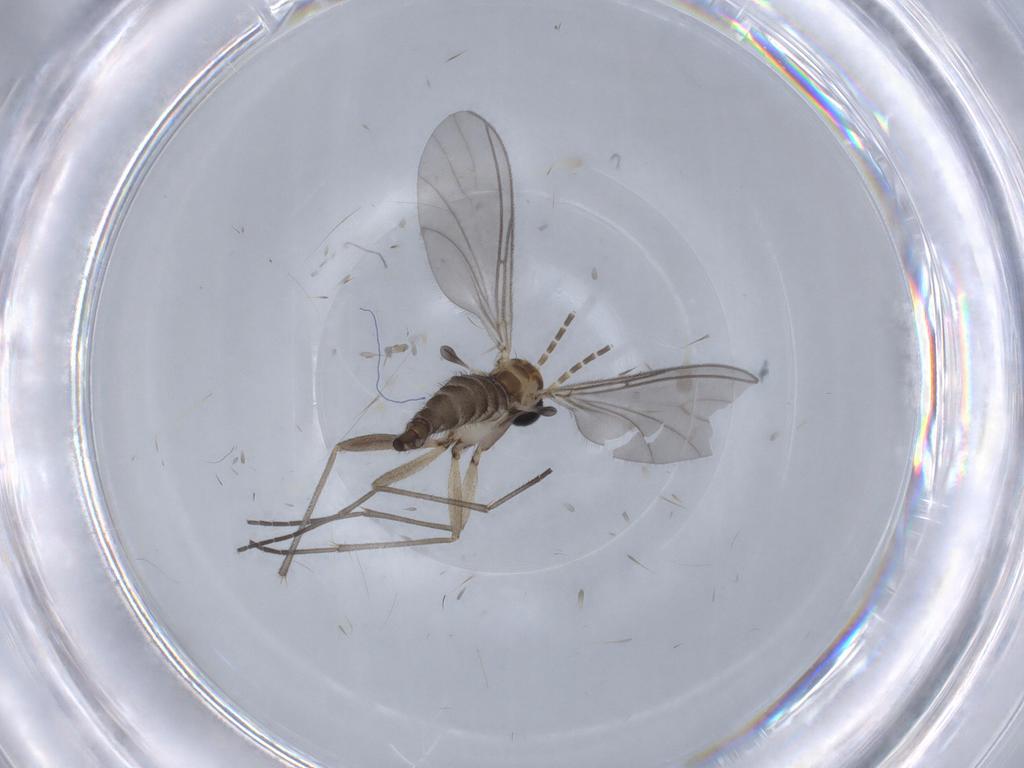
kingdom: Animalia
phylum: Arthropoda
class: Insecta
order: Diptera
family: Sciaridae
